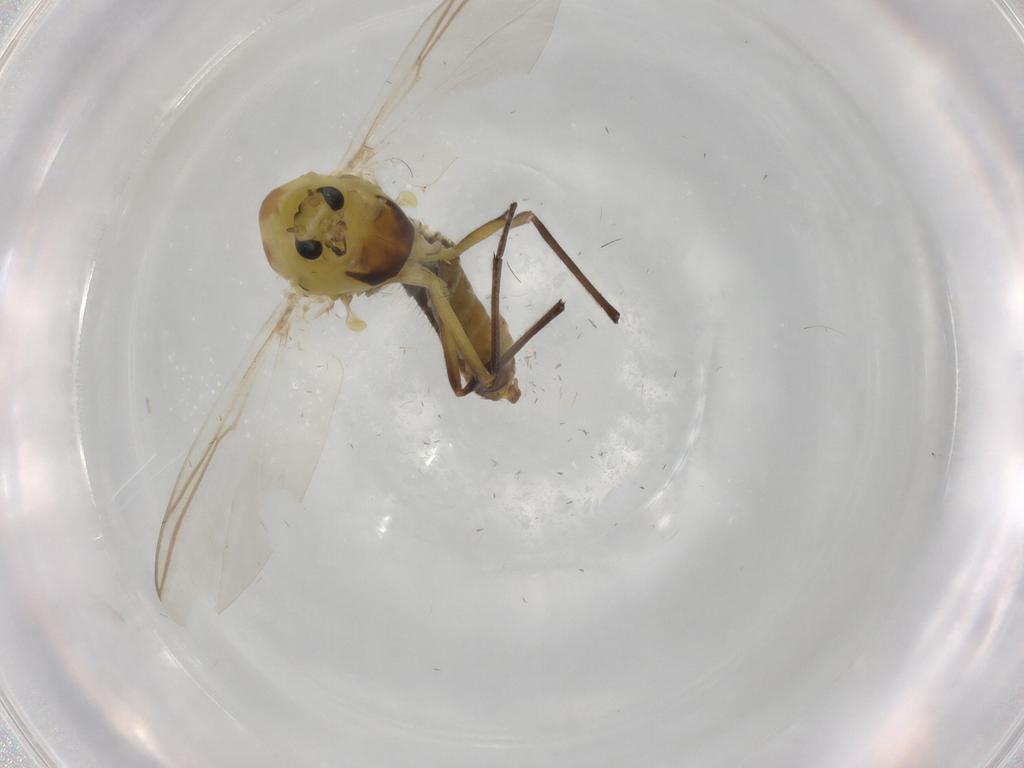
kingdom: Animalia
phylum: Arthropoda
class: Insecta
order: Diptera
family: Chironomidae
